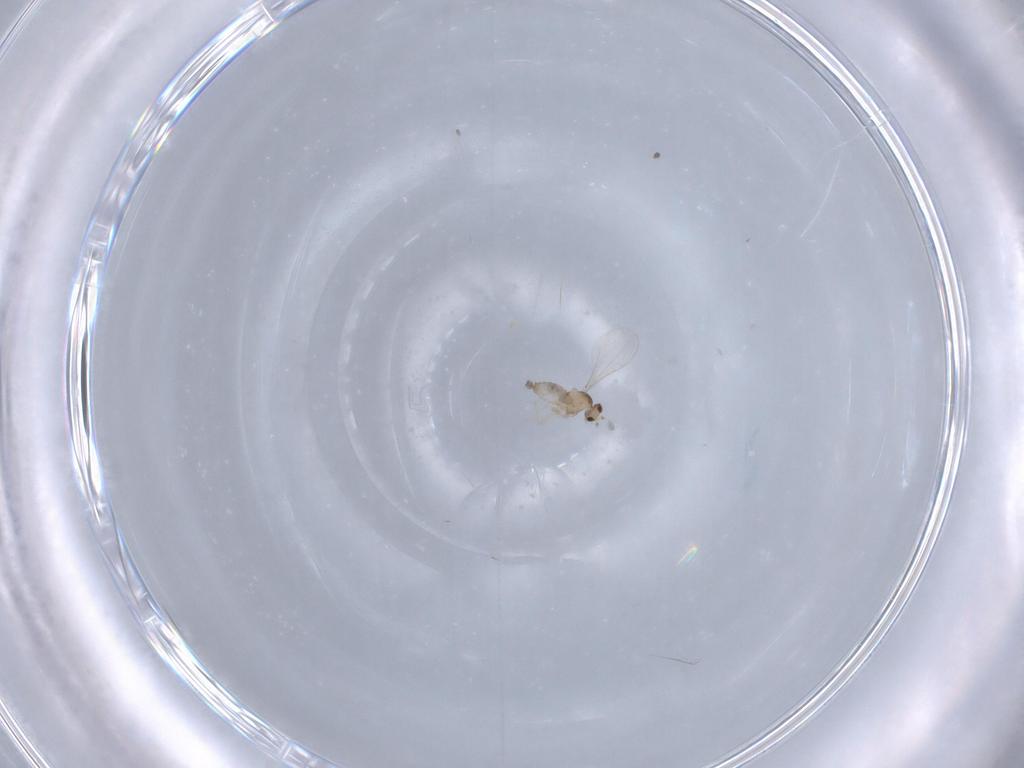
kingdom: Animalia
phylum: Arthropoda
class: Insecta
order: Diptera
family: Cecidomyiidae
